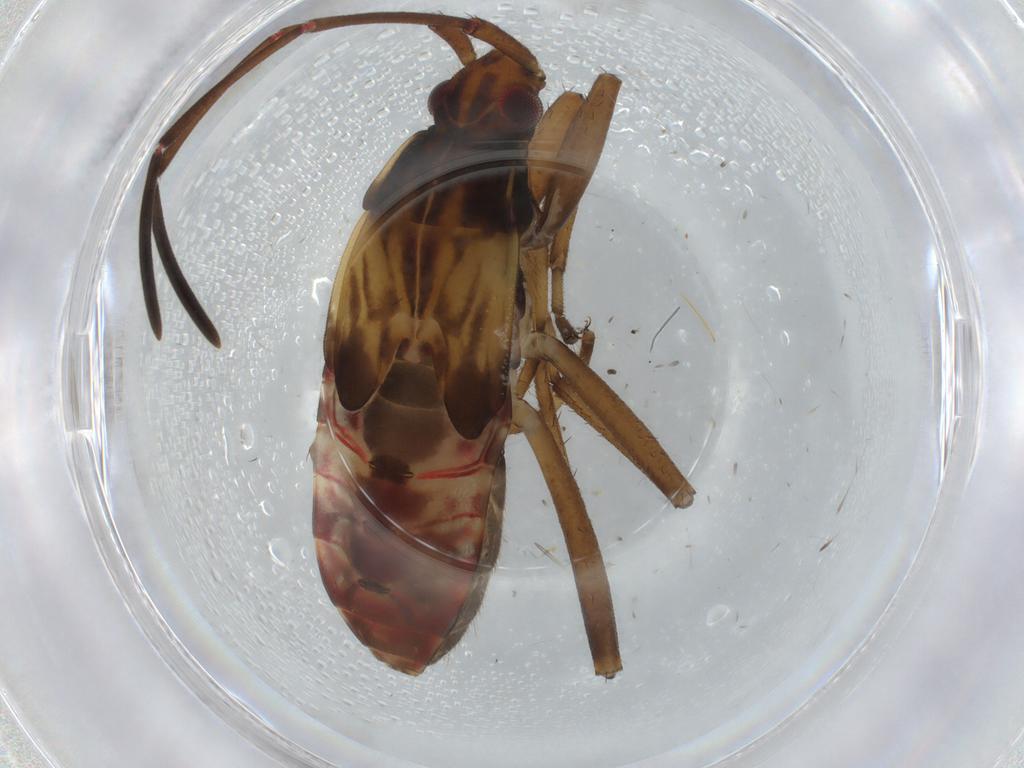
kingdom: Animalia
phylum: Arthropoda
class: Insecta
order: Hemiptera
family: Rhyparochromidae
